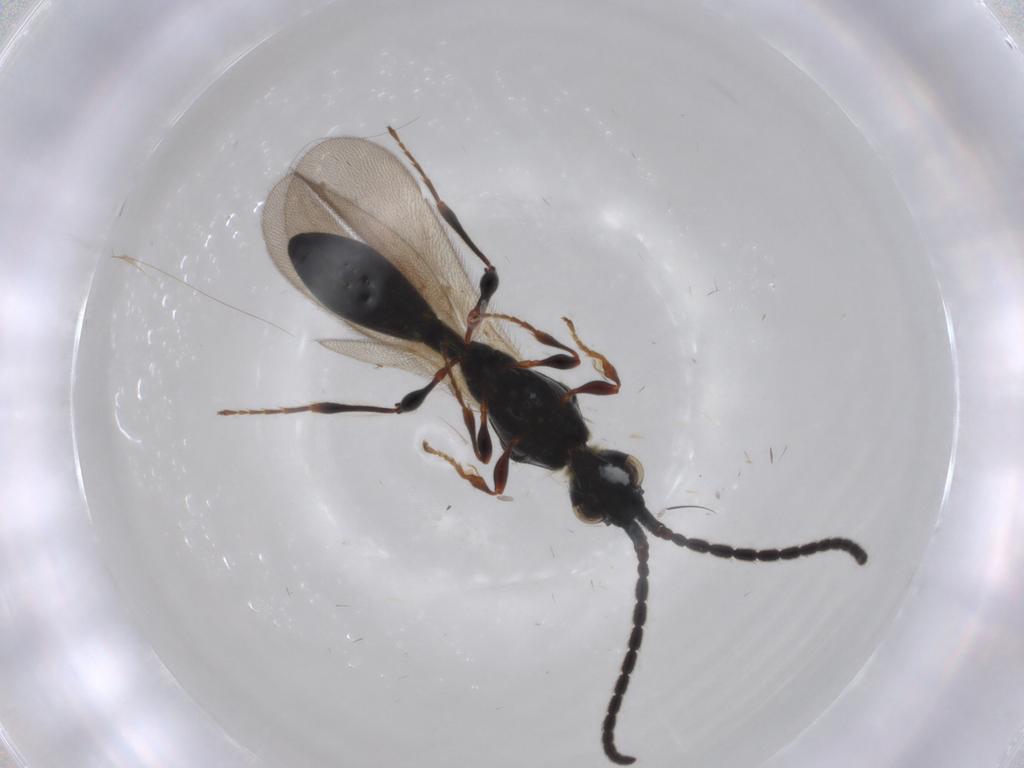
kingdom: Animalia
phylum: Arthropoda
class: Insecta
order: Hymenoptera
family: Diapriidae
